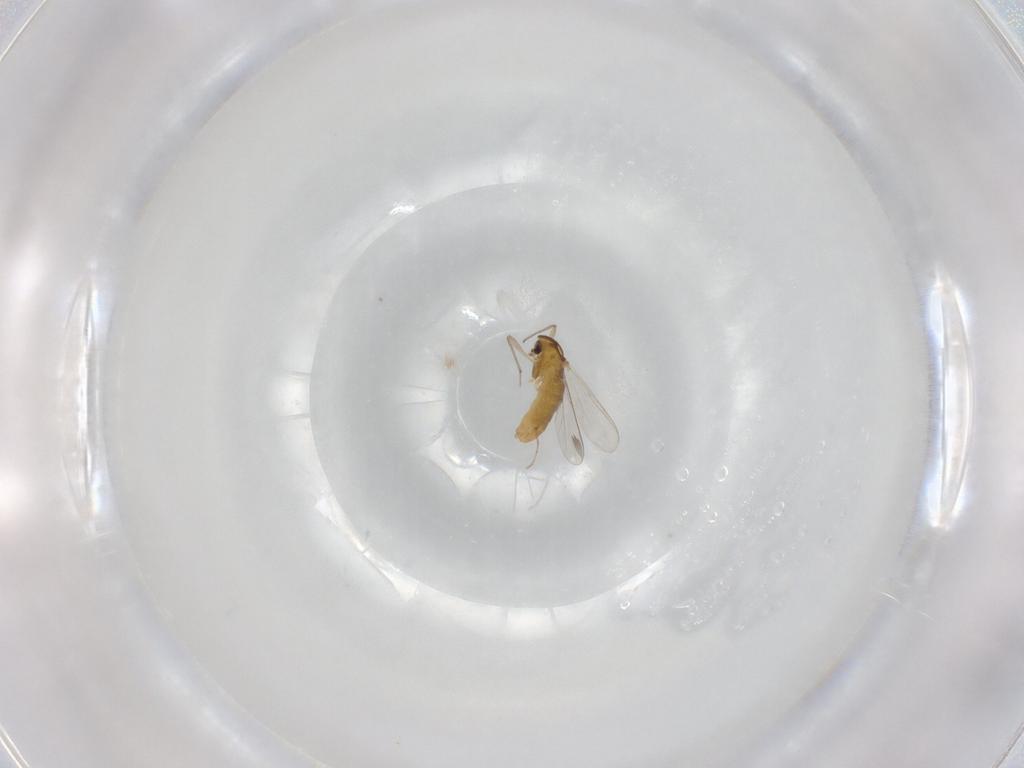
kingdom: Animalia
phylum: Arthropoda
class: Insecta
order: Diptera
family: Chironomidae
